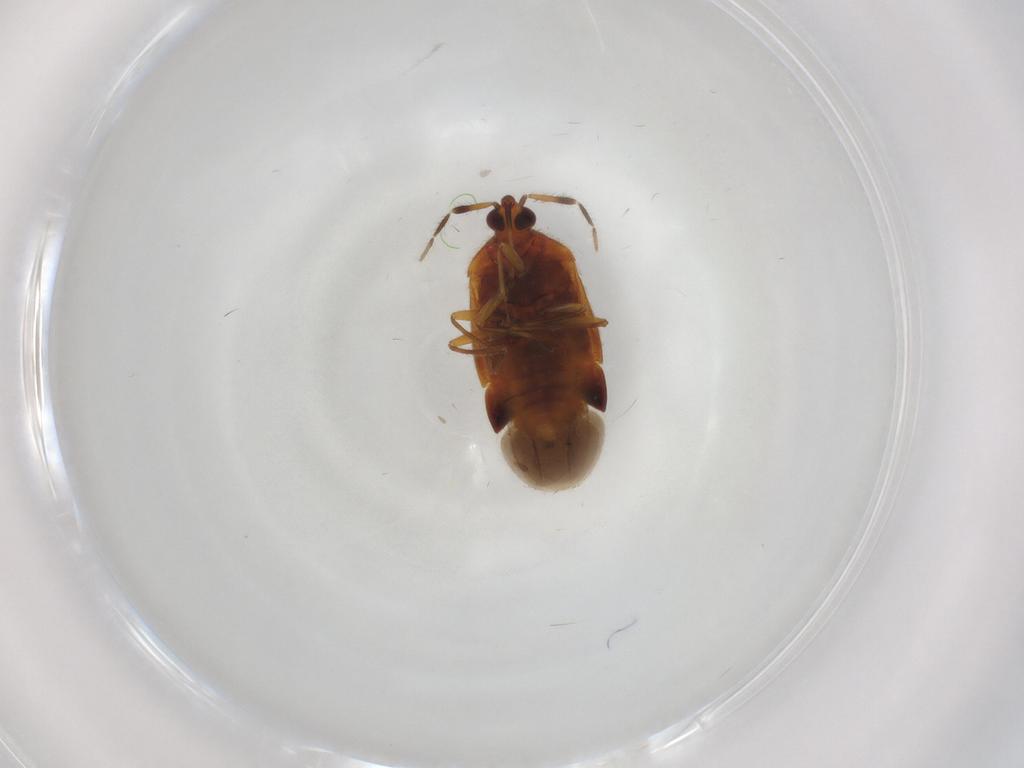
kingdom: Animalia
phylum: Arthropoda
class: Insecta
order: Hemiptera
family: Anthocoridae
